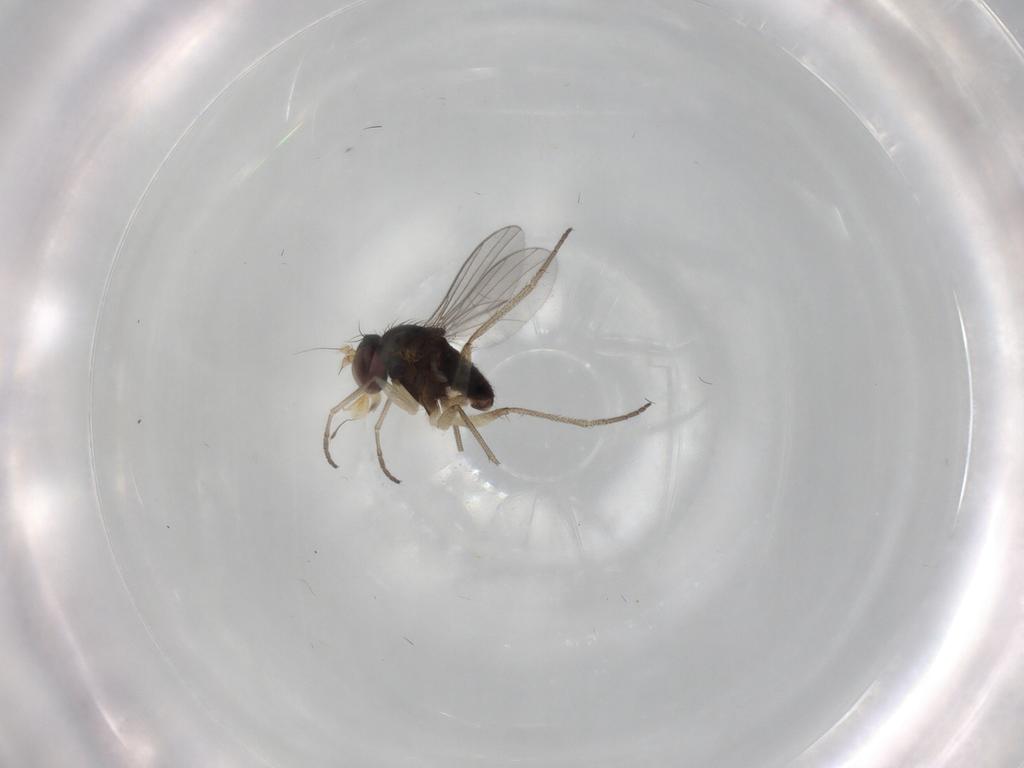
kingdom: Animalia
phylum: Arthropoda
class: Insecta
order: Diptera
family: Dolichopodidae
